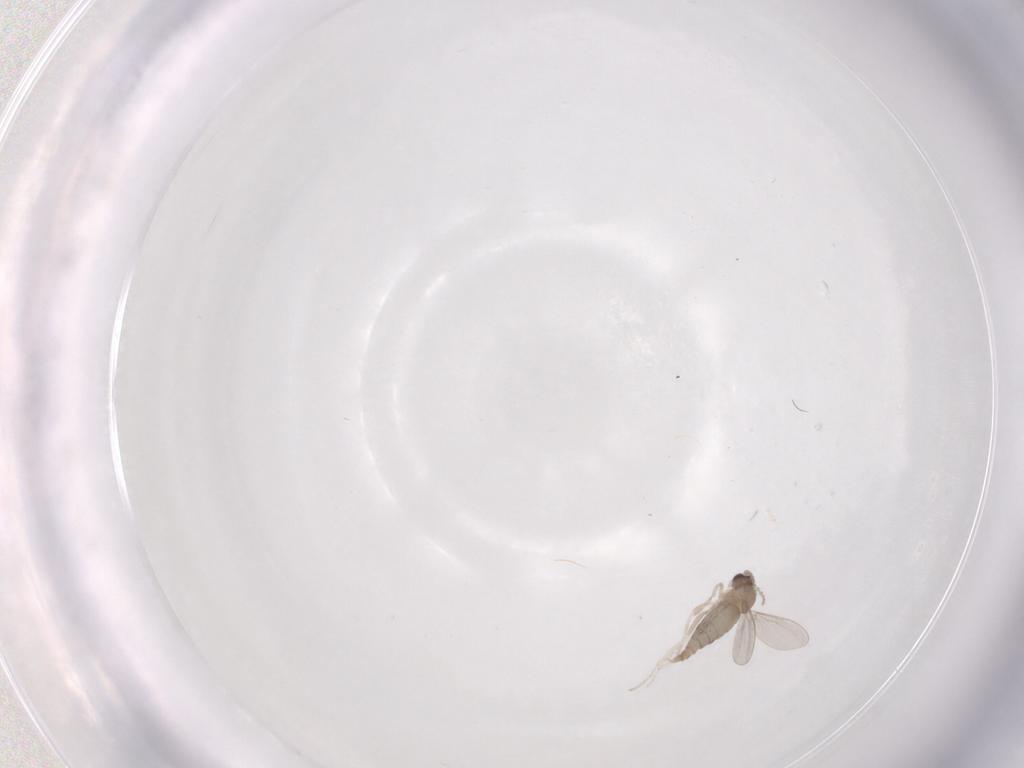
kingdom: Animalia
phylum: Arthropoda
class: Insecta
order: Diptera
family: Cecidomyiidae
